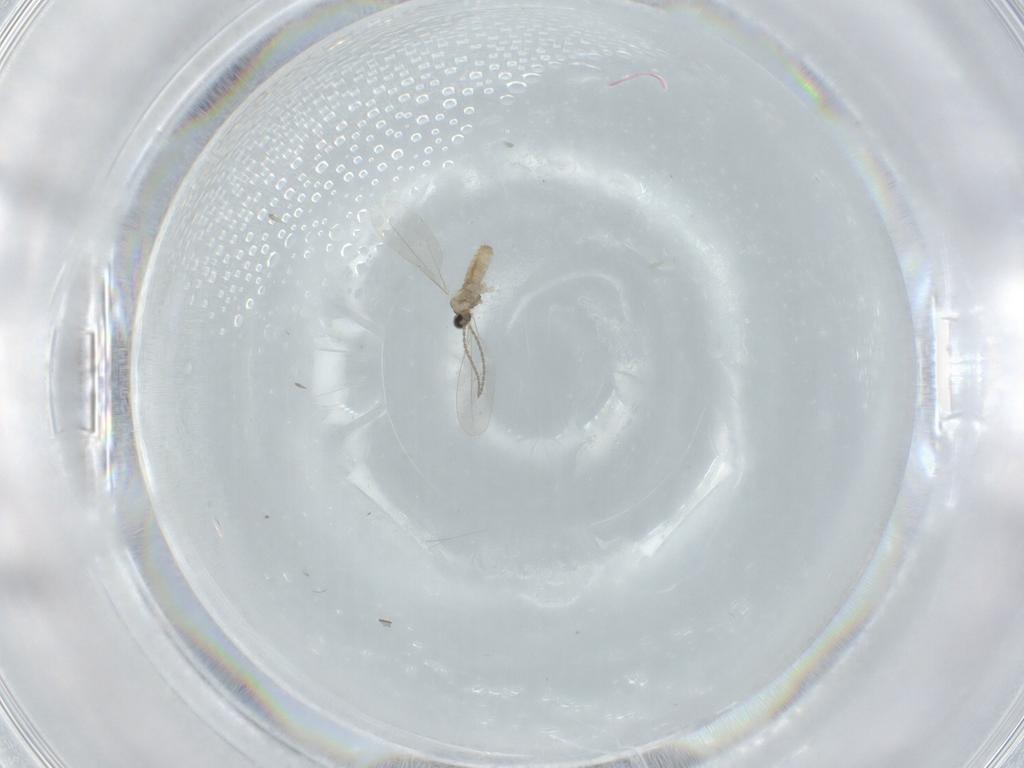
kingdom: Animalia
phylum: Arthropoda
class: Insecta
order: Diptera
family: Cecidomyiidae
